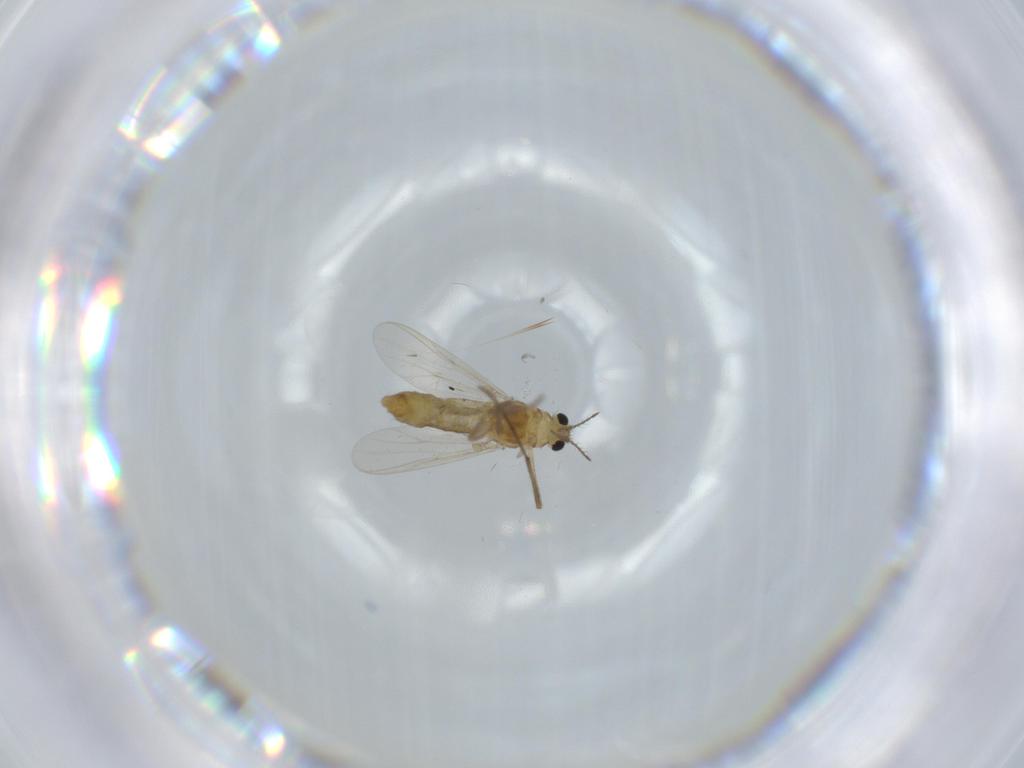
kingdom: Animalia
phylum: Arthropoda
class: Insecta
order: Diptera
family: Chironomidae
